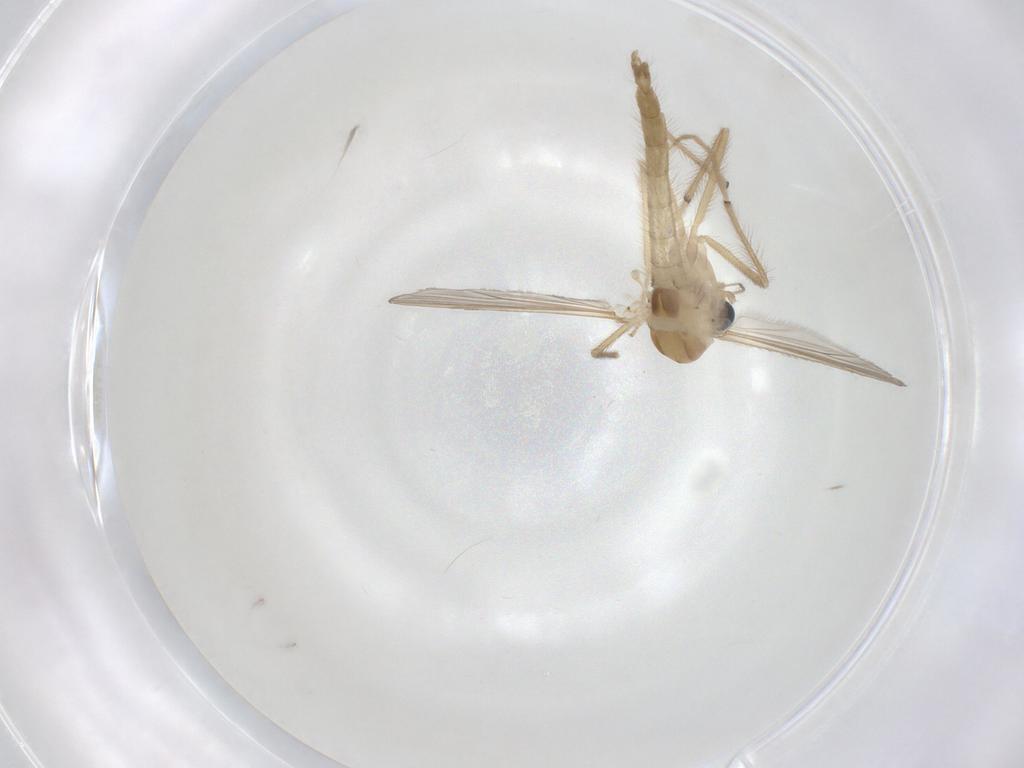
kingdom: Animalia
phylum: Arthropoda
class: Insecta
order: Diptera
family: Chironomidae
